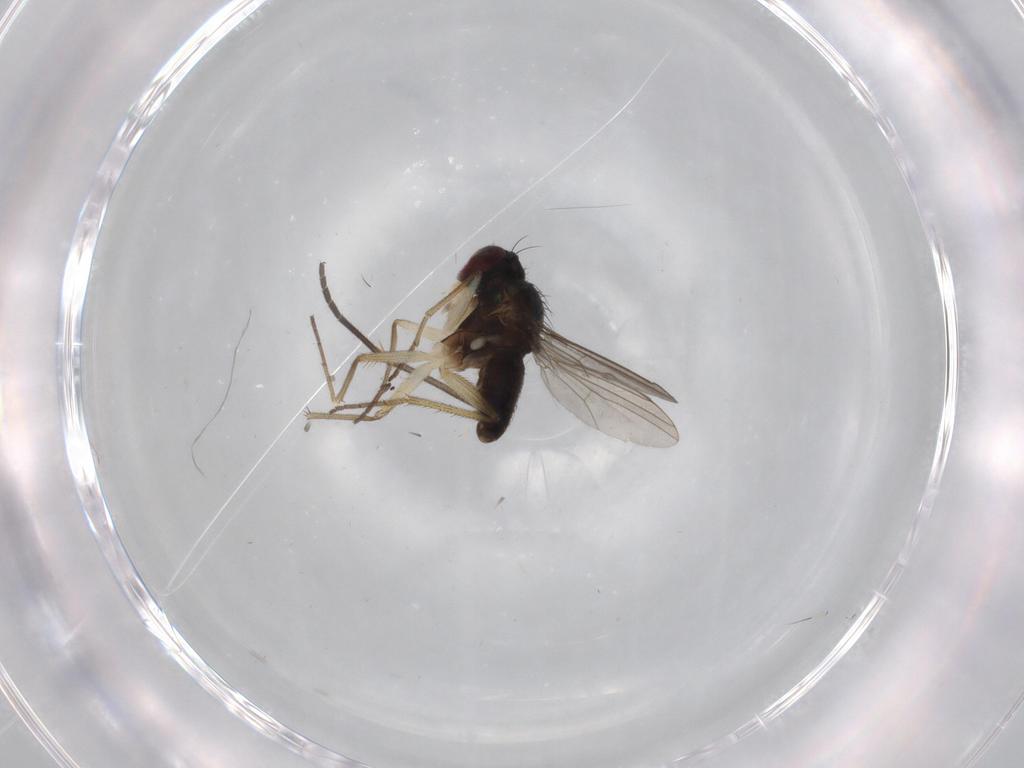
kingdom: Animalia
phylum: Arthropoda
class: Insecta
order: Diptera
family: Dolichopodidae
